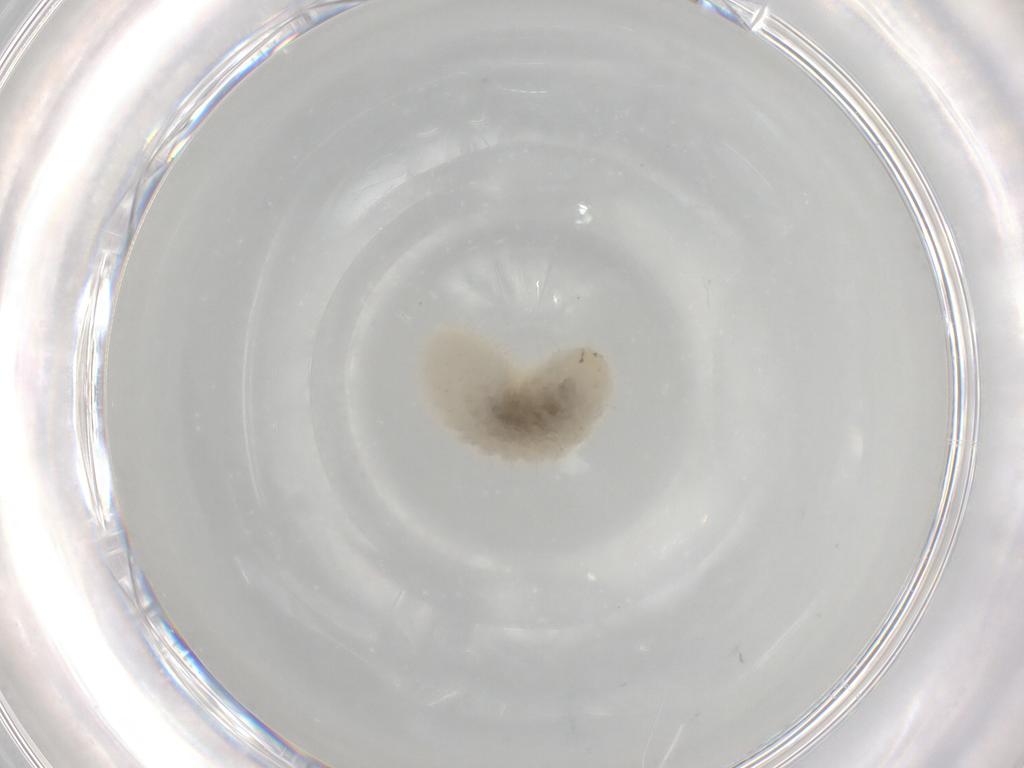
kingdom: Animalia
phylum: Arthropoda
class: Insecta
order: Hymenoptera
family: Torymidae
